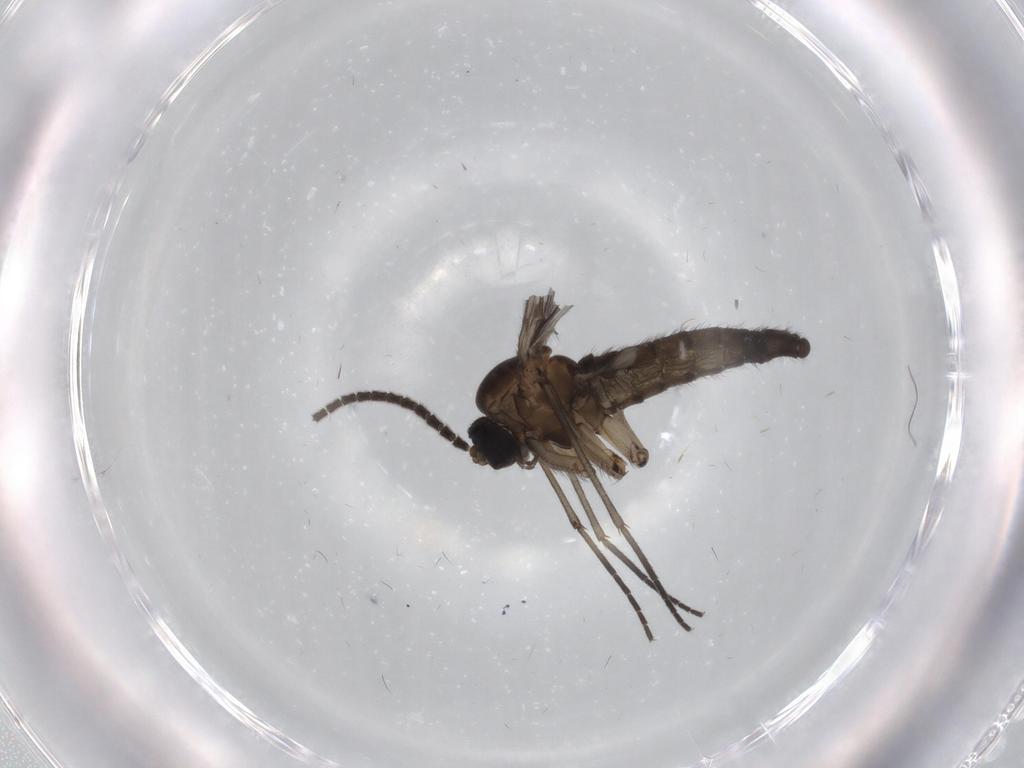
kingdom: Animalia
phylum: Arthropoda
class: Insecta
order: Diptera
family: Sciaridae
